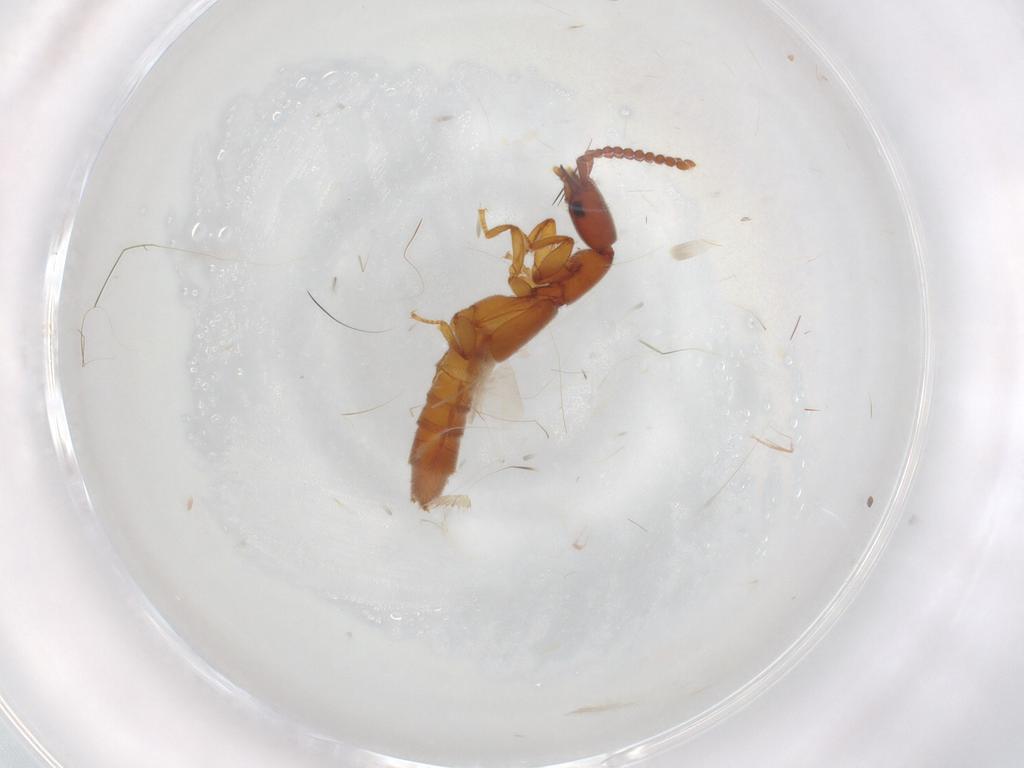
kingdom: Animalia
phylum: Arthropoda
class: Insecta
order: Coleoptera
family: Staphylinidae
